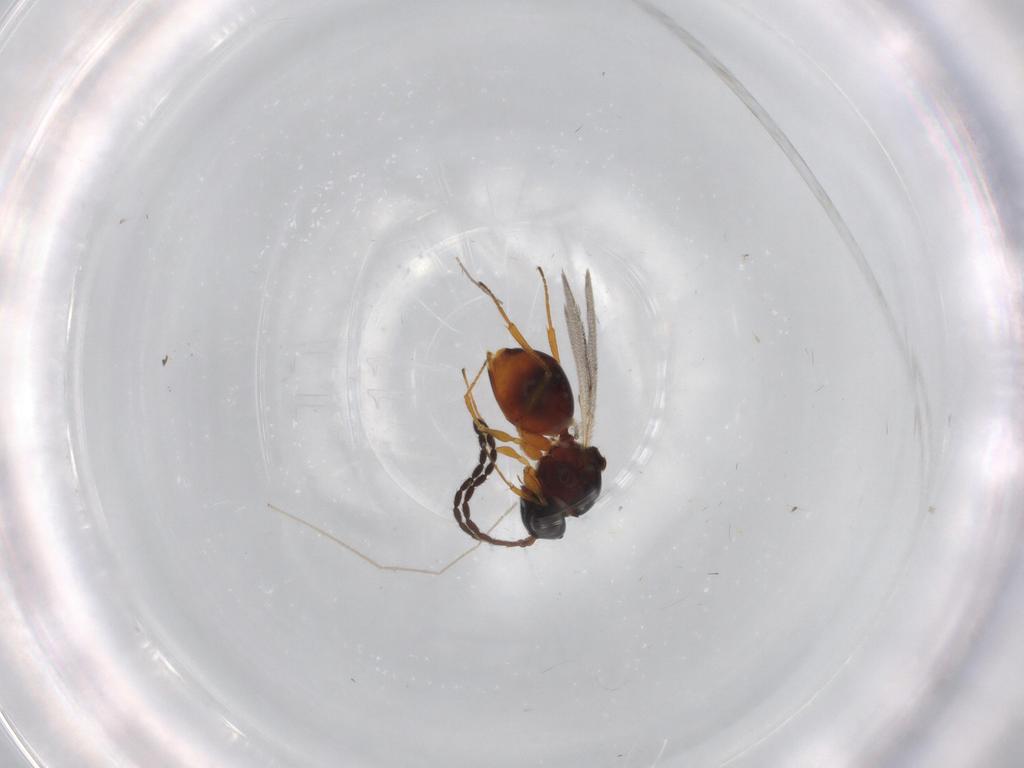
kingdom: Animalia
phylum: Arthropoda
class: Insecta
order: Hymenoptera
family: Figitidae
